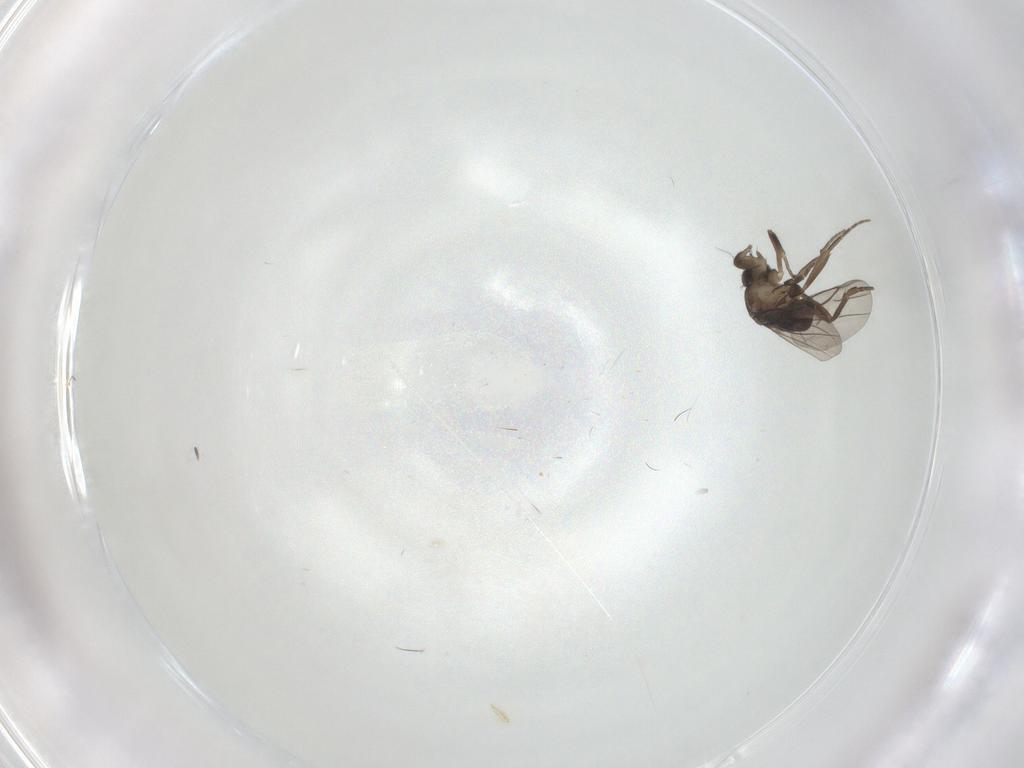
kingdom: Animalia
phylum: Arthropoda
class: Insecta
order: Diptera
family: Phoridae
